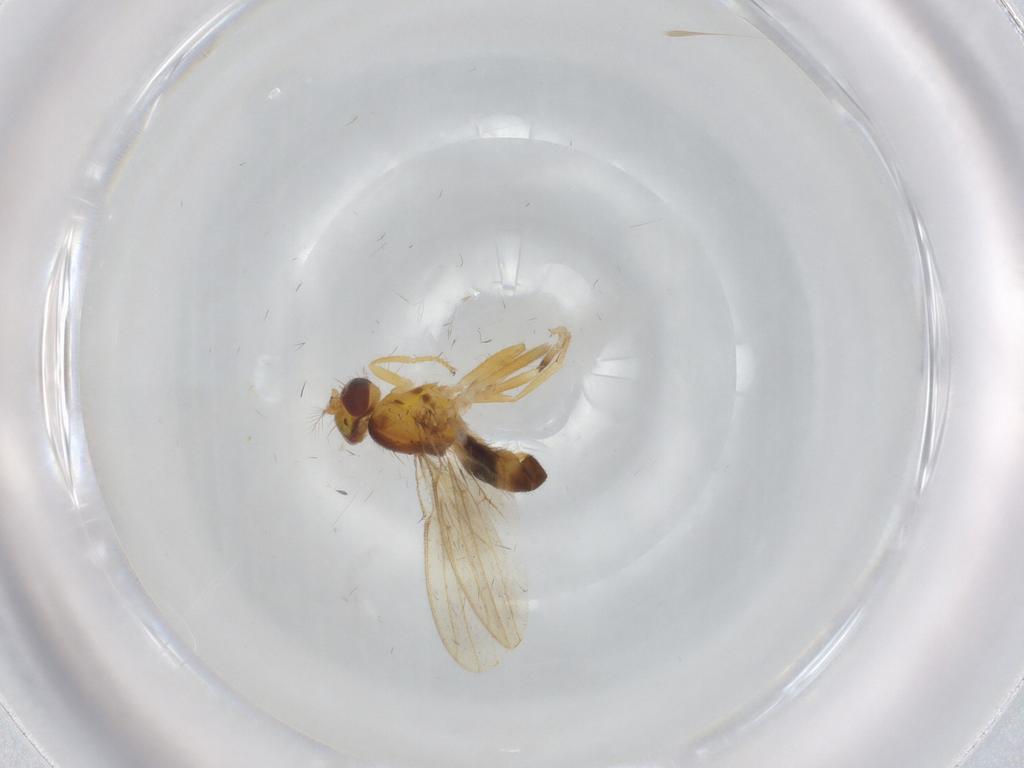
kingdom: Animalia
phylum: Arthropoda
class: Insecta
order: Diptera
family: Periscelididae
